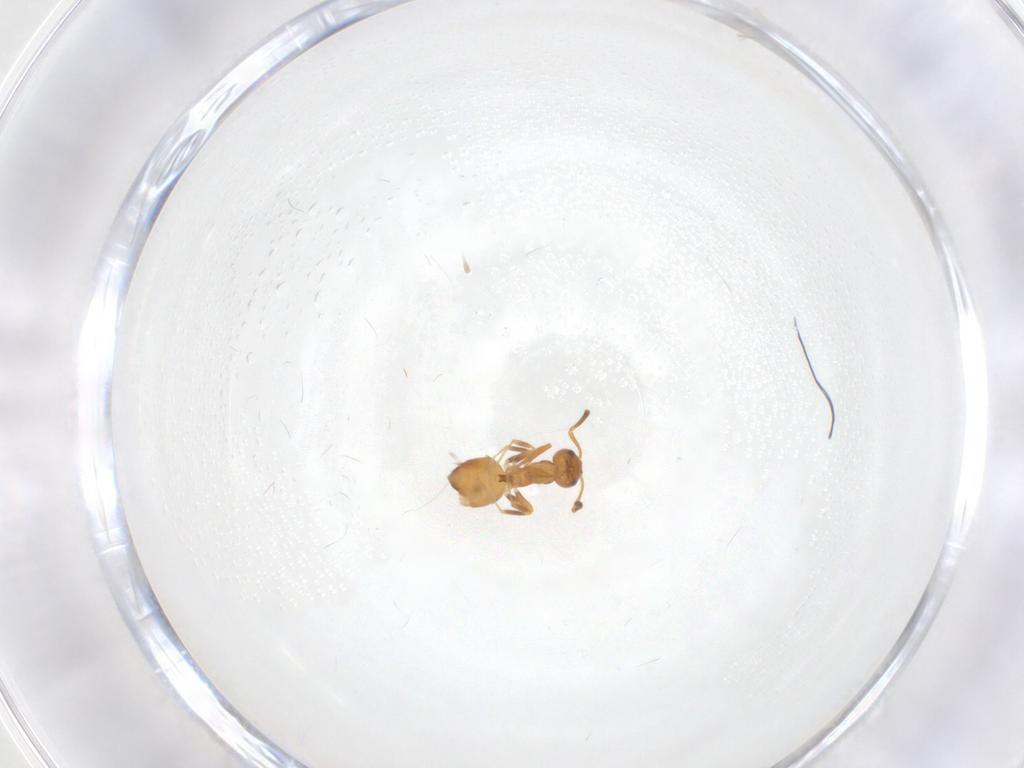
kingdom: Animalia
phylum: Arthropoda
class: Insecta
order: Hymenoptera
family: Formicidae
